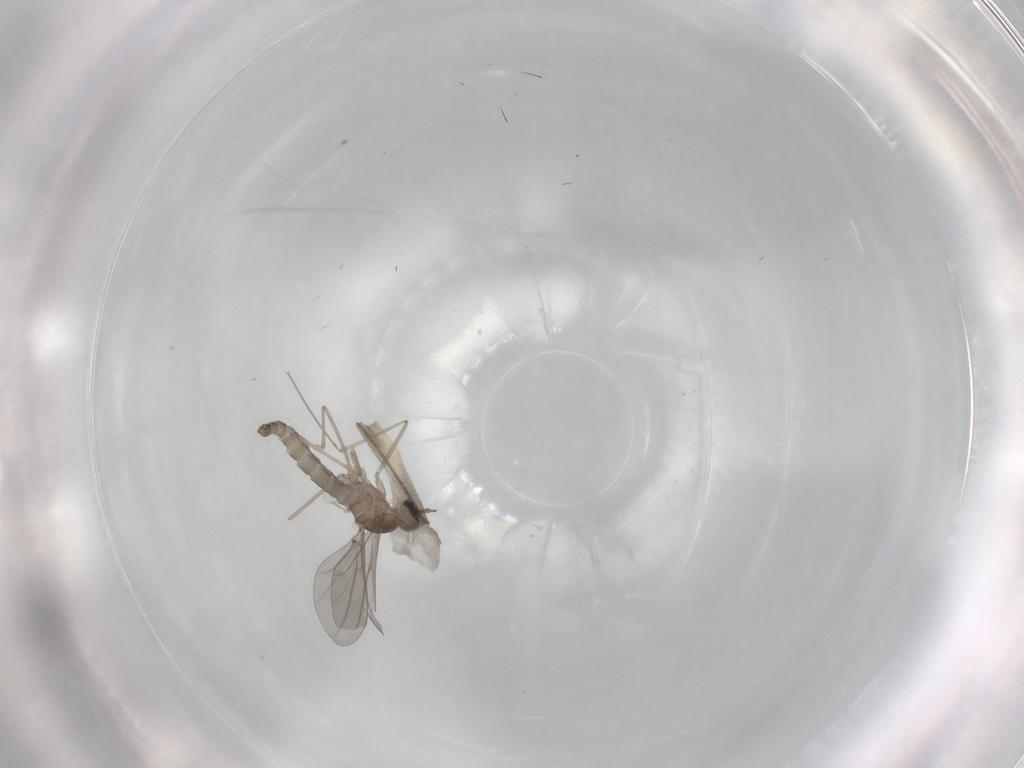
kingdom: Animalia
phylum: Arthropoda
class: Insecta
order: Diptera
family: Cecidomyiidae
